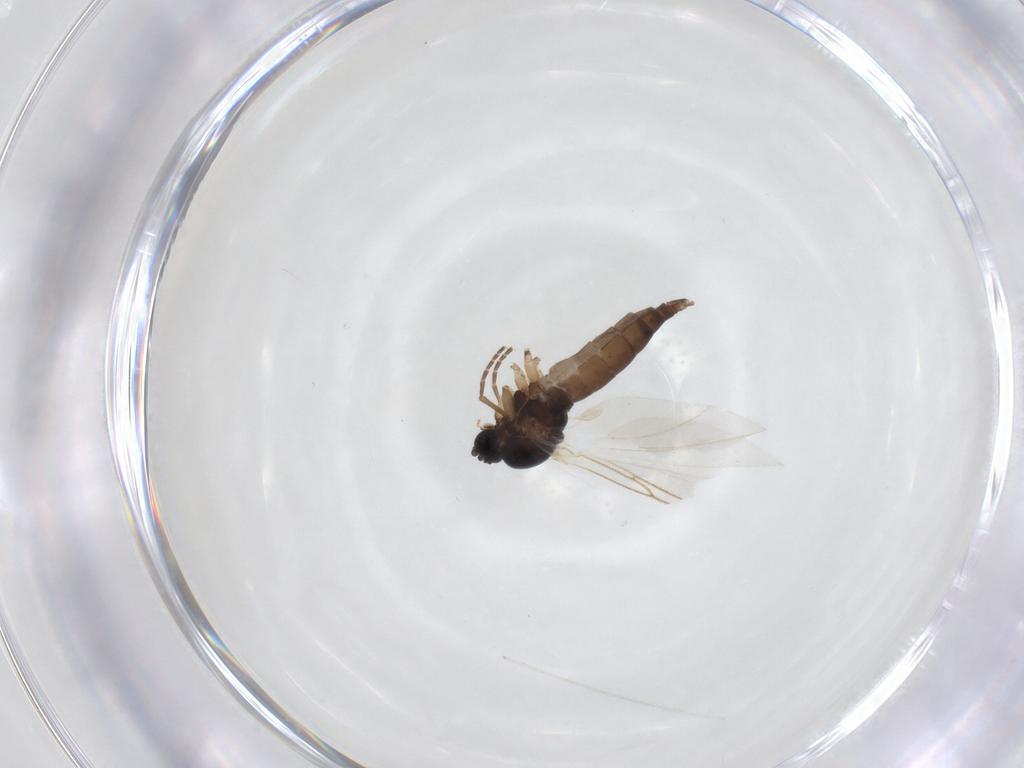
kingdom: Animalia
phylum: Arthropoda
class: Insecta
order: Diptera
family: Sciaridae
